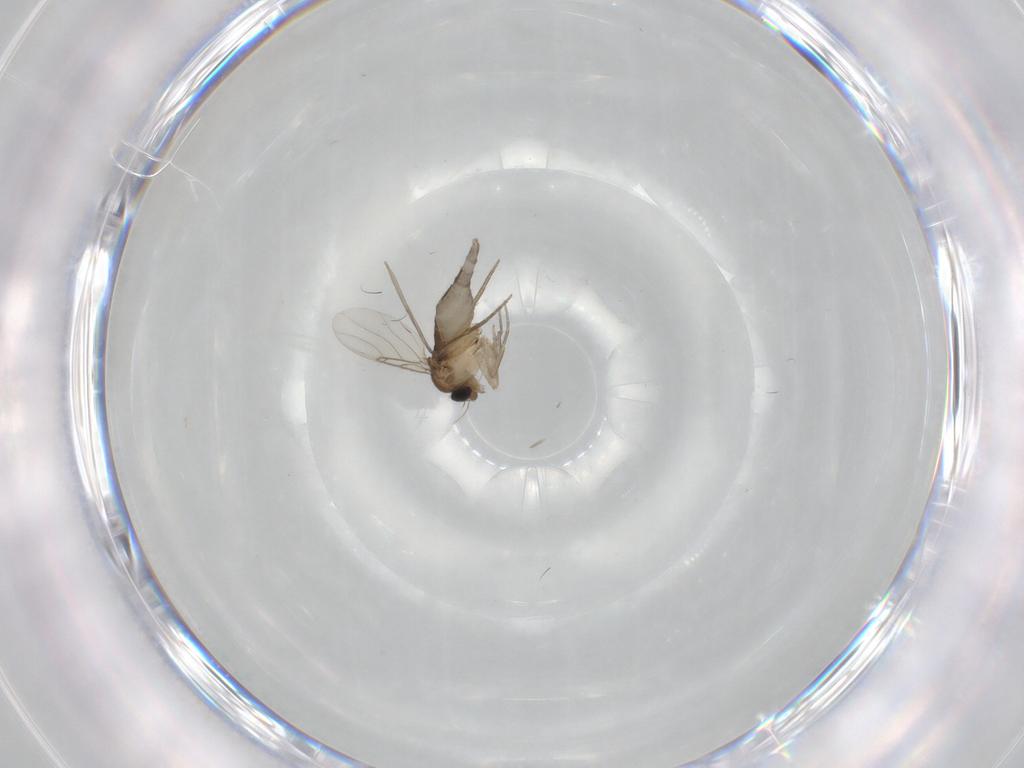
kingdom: Animalia
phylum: Arthropoda
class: Insecta
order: Diptera
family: Phoridae
